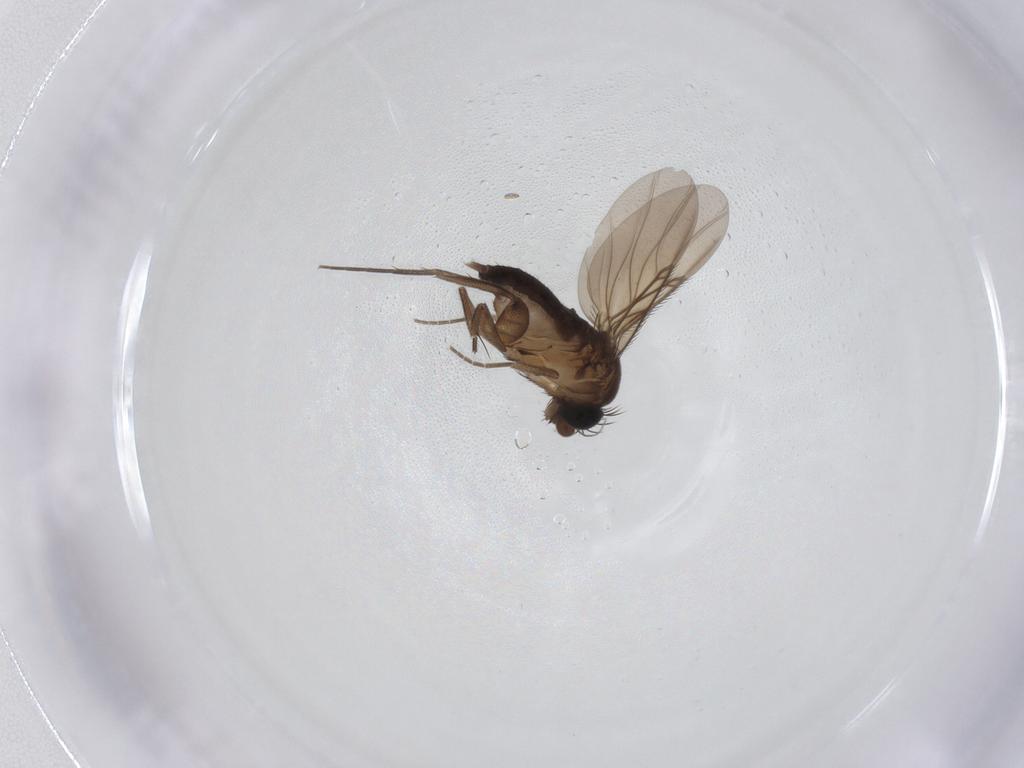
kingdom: Animalia
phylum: Arthropoda
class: Insecta
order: Diptera
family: Phoridae
